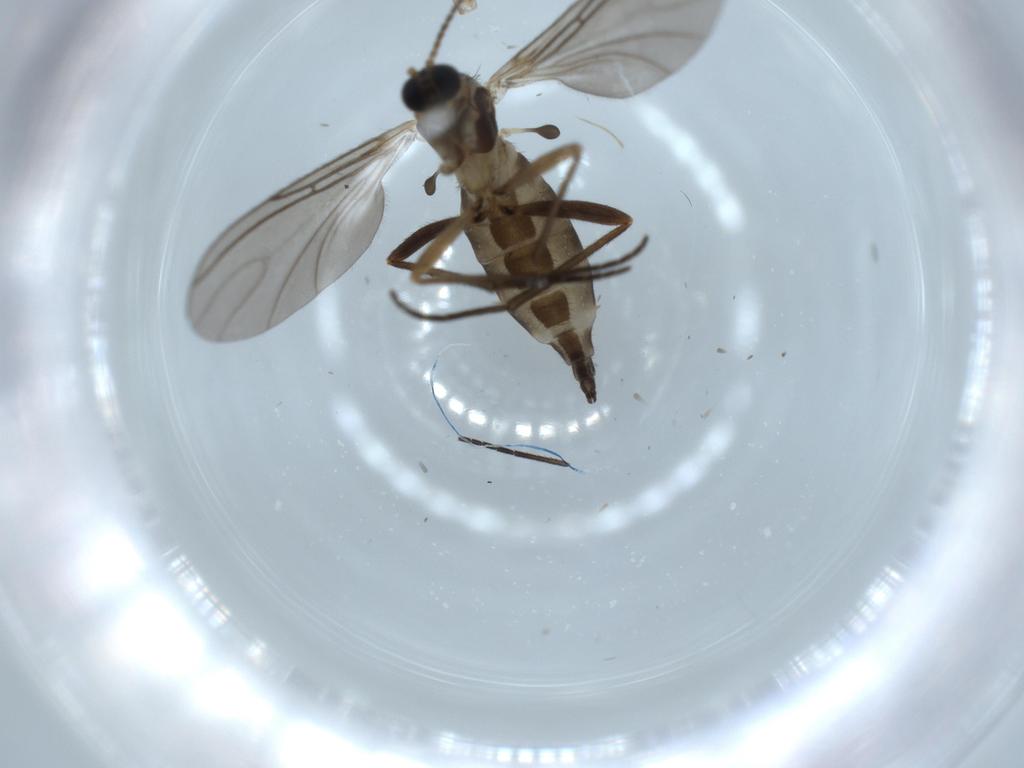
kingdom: Animalia
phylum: Arthropoda
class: Insecta
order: Diptera
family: Sciaridae
